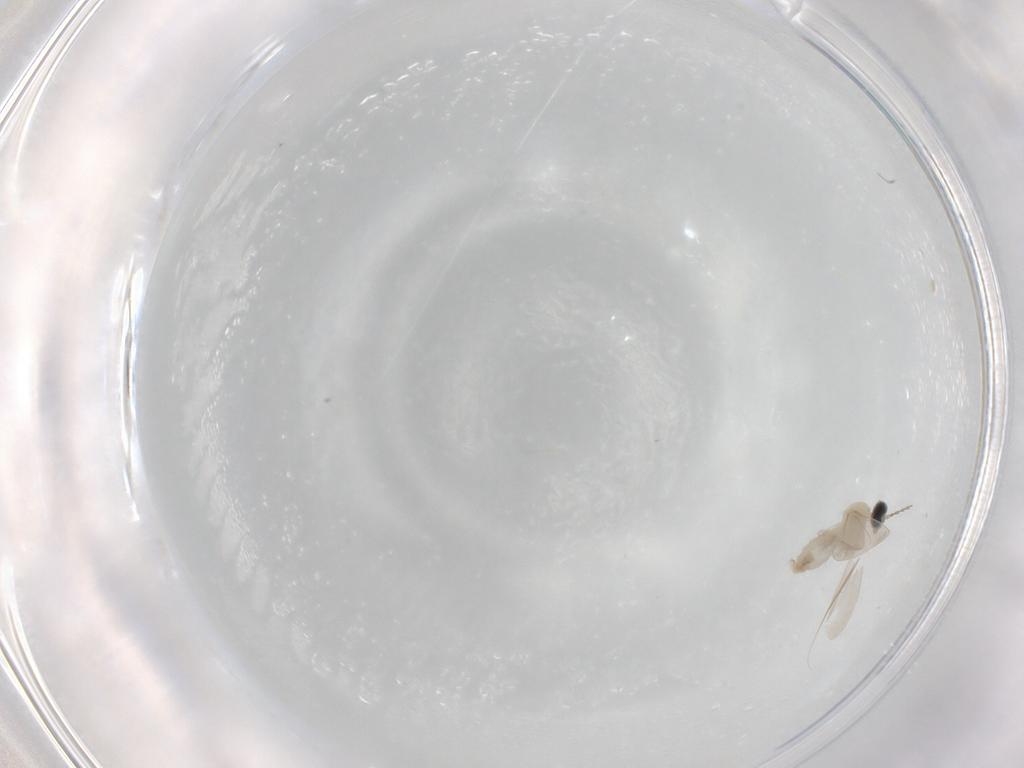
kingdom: Animalia
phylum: Arthropoda
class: Insecta
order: Diptera
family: Cecidomyiidae
